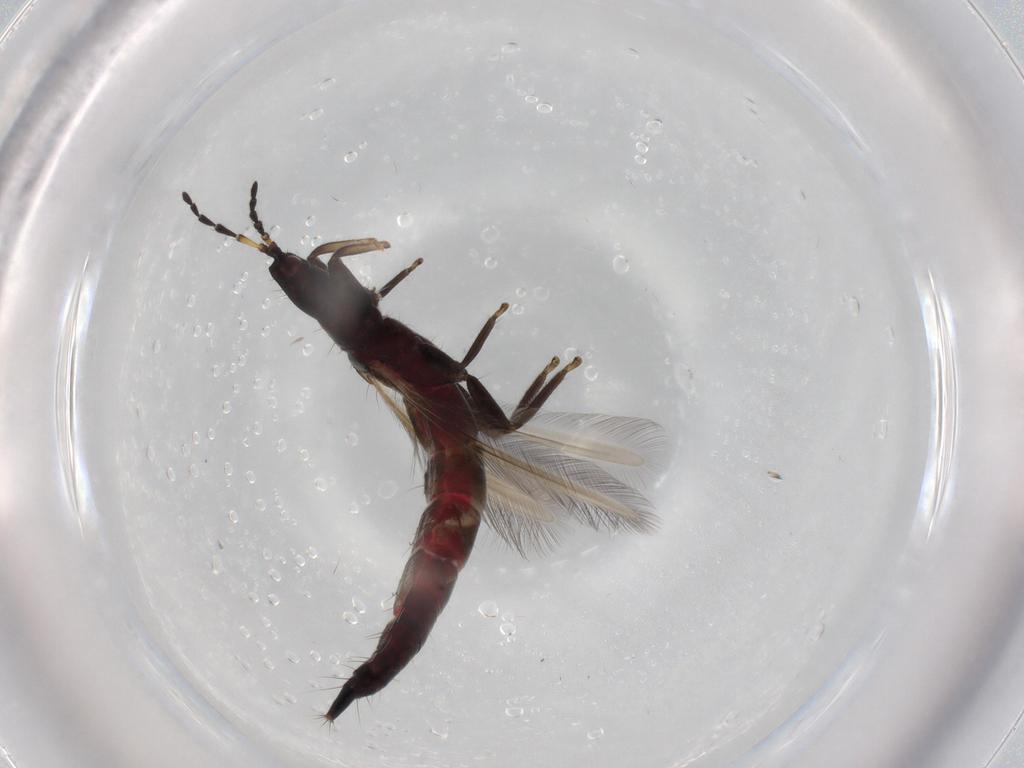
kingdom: Animalia
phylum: Arthropoda
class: Insecta
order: Thysanoptera
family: Phlaeothripidae
